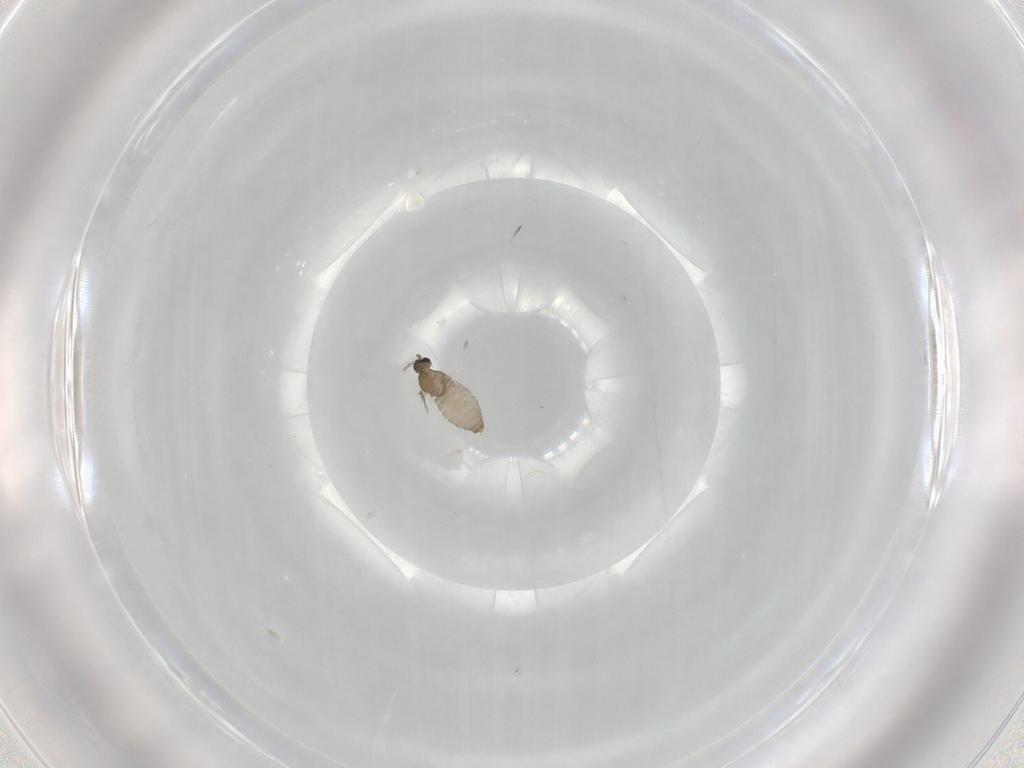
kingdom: Animalia
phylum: Arthropoda
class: Insecta
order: Diptera
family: Cecidomyiidae
